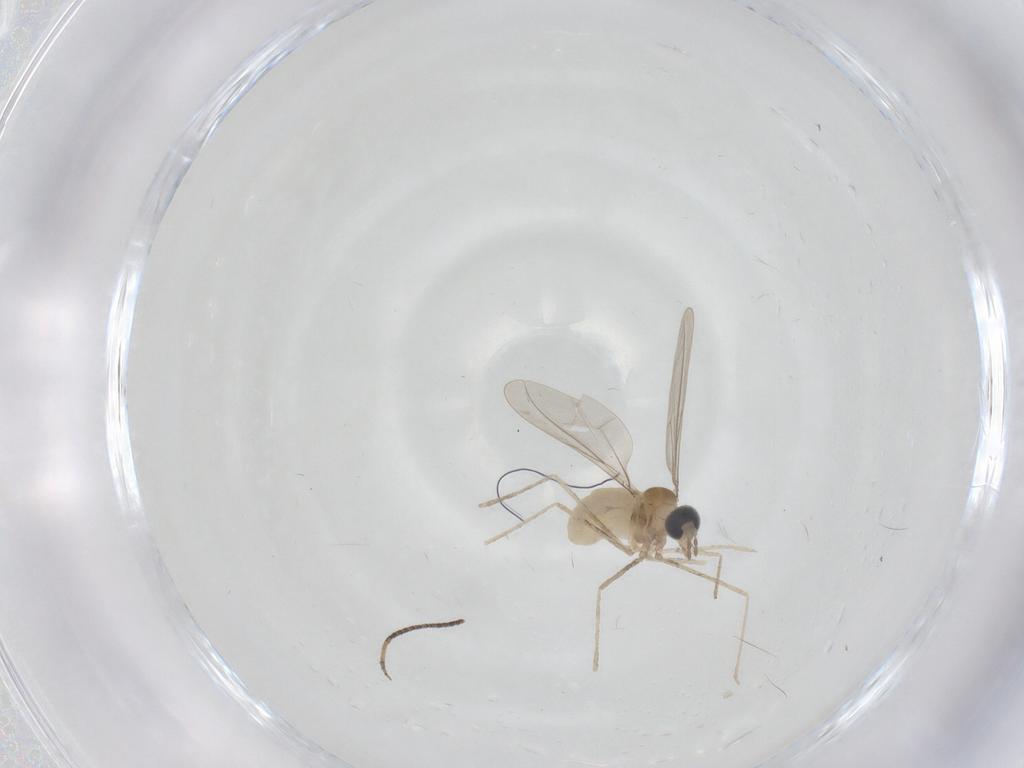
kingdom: Animalia
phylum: Arthropoda
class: Insecta
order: Diptera
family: Cecidomyiidae
